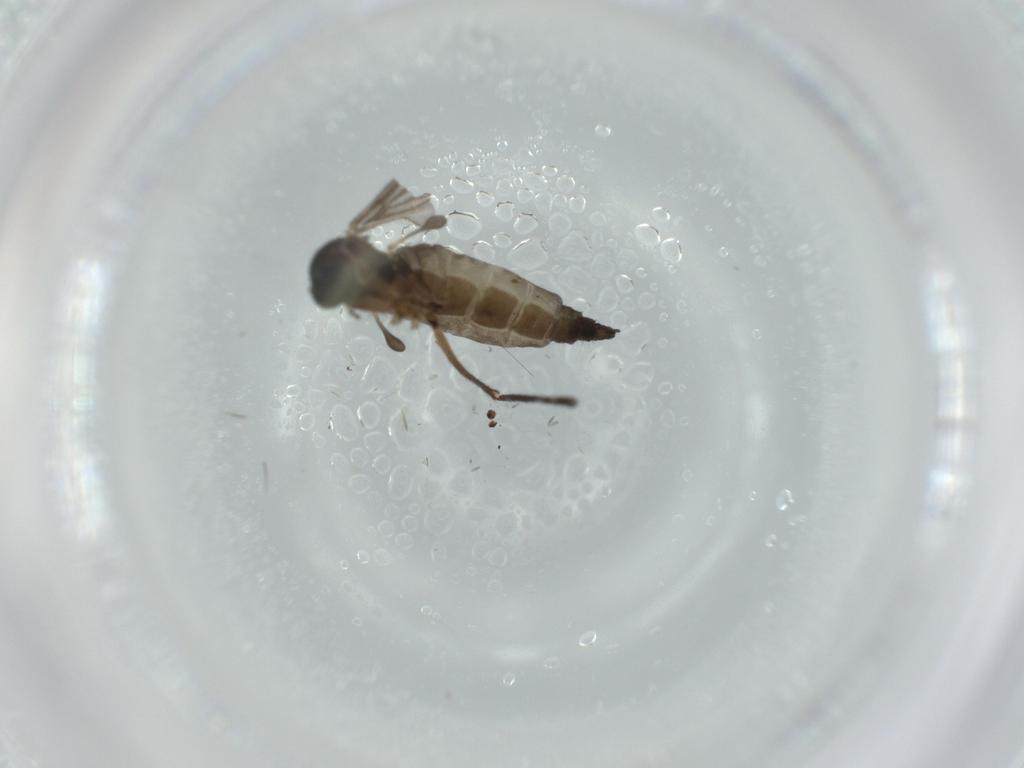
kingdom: Animalia
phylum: Arthropoda
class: Insecta
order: Diptera
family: Sciaridae
